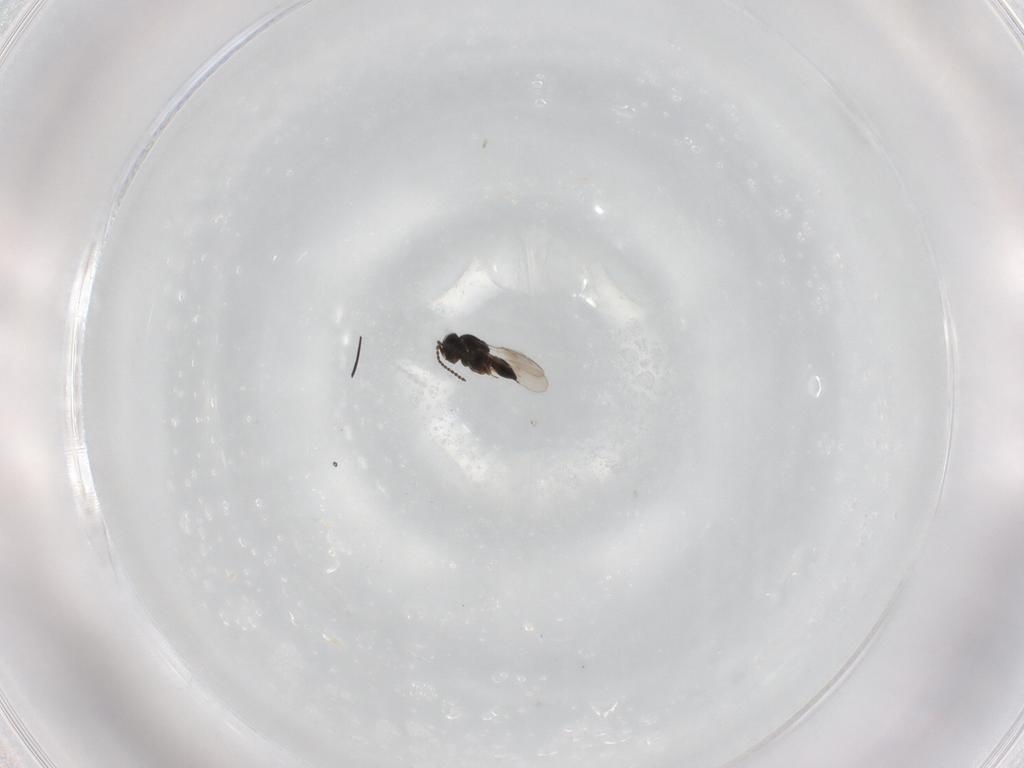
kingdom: Animalia
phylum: Arthropoda
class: Insecta
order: Hymenoptera
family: Scelionidae
